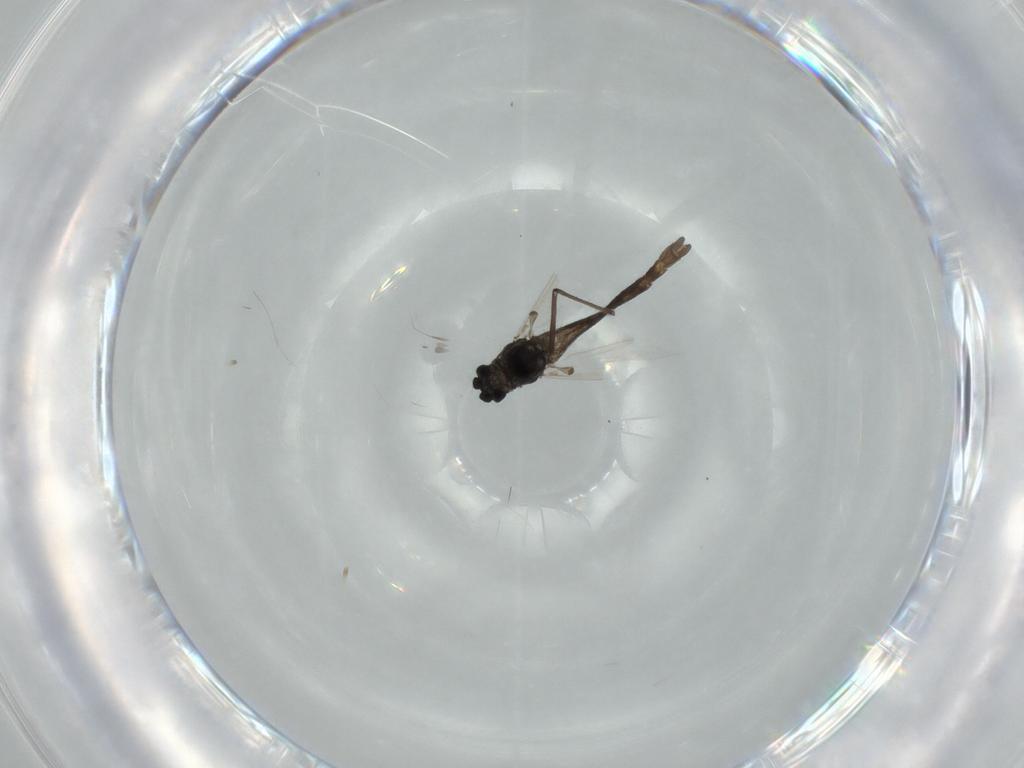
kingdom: Animalia
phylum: Arthropoda
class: Insecta
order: Diptera
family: Chironomidae
